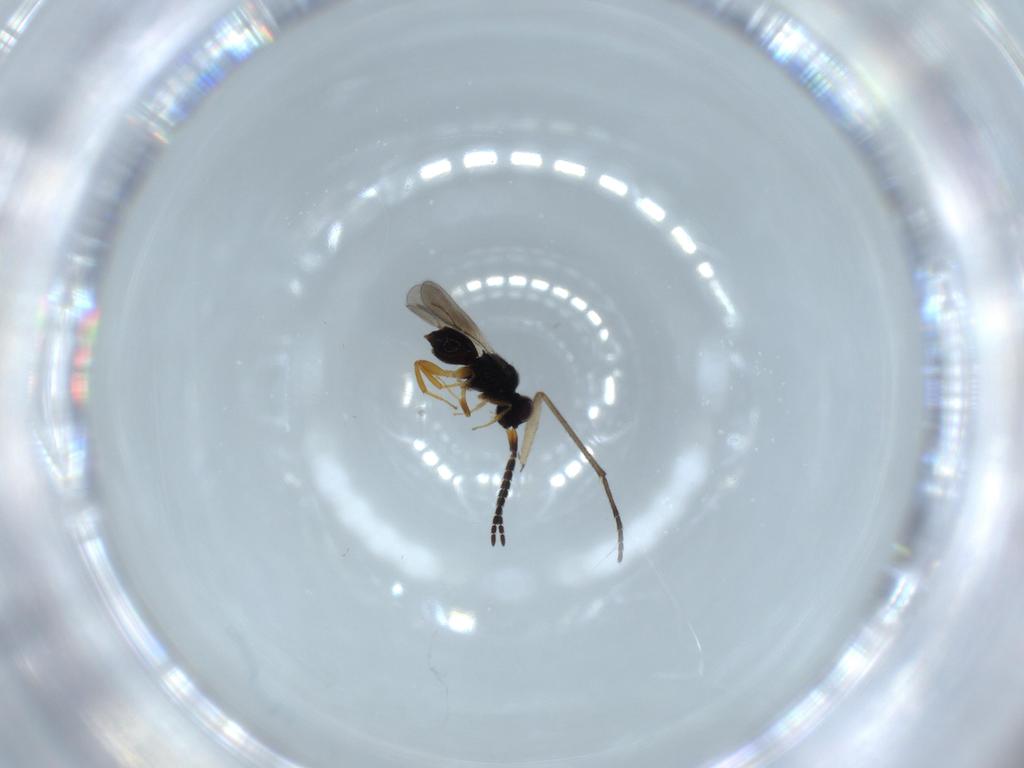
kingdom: Animalia
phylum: Arthropoda
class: Insecta
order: Hymenoptera
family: Ceraphronidae
